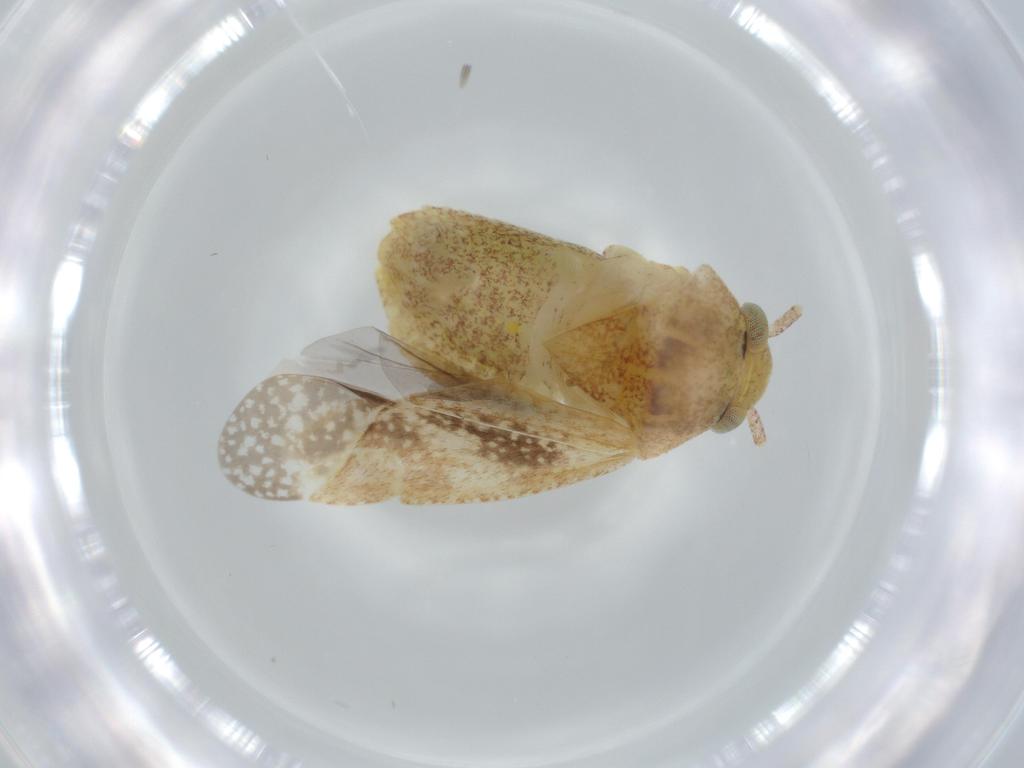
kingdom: Animalia
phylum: Arthropoda
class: Insecta
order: Hemiptera
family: Miridae
